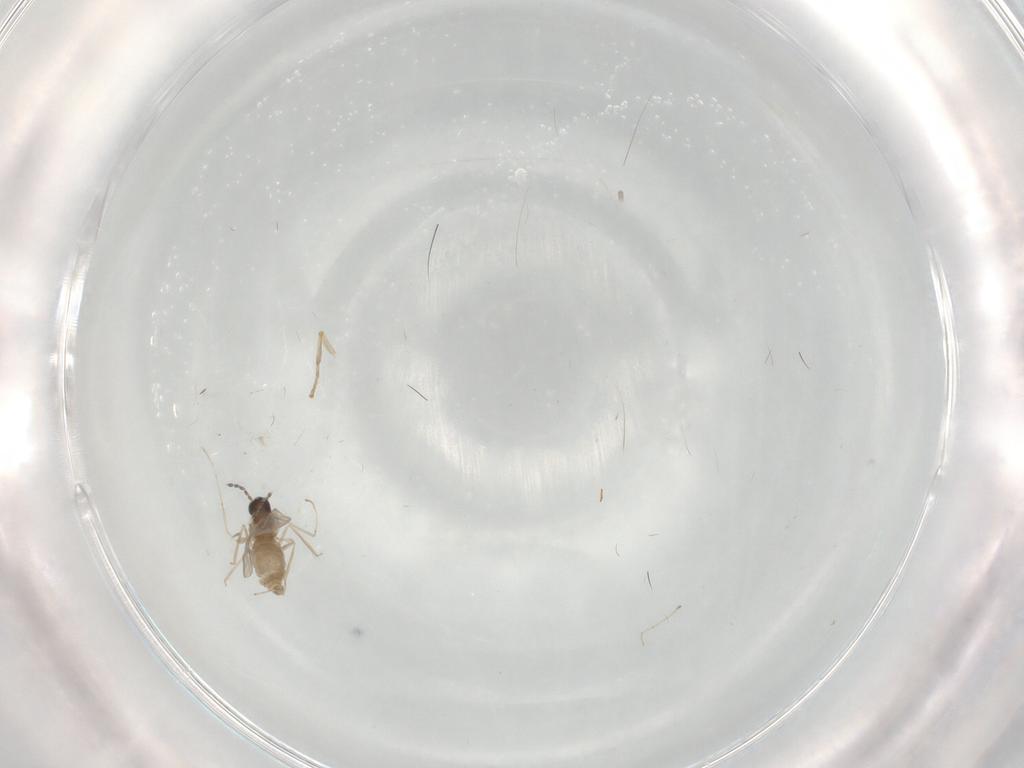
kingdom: Animalia
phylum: Arthropoda
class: Insecta
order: Diptera
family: Cecidomyiidae
